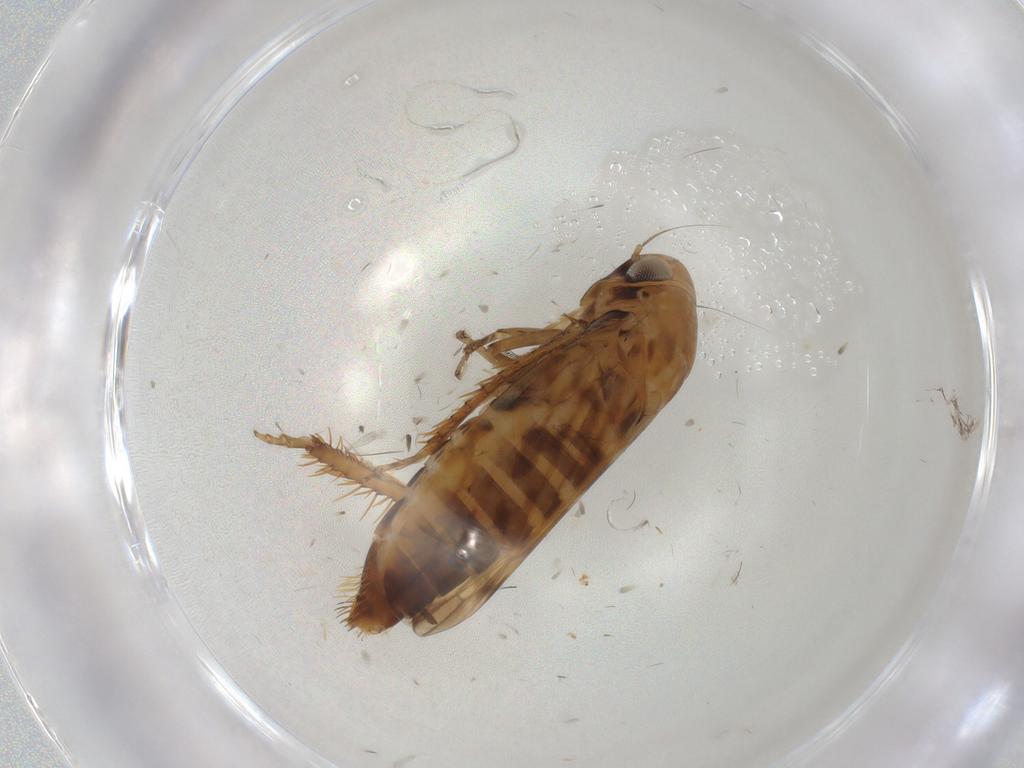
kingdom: Animalia
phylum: Arthropoda
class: Insecta
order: Hemiptera
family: Cicadellidae
